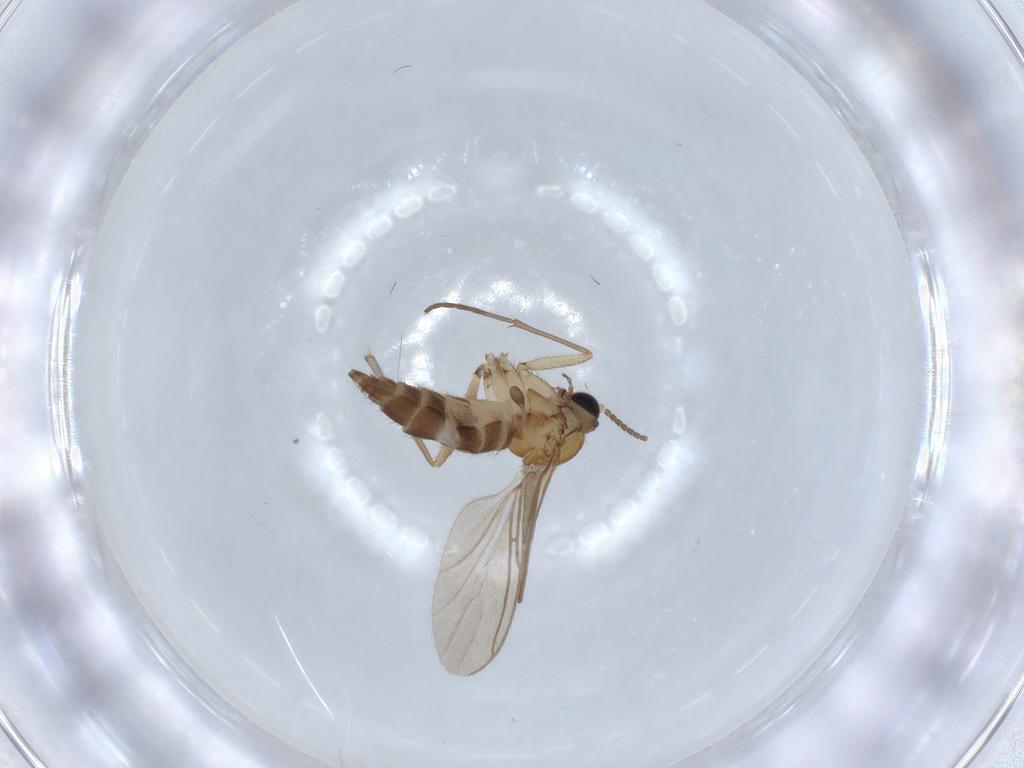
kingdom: Animalia
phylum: Arthropoda
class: Insecta
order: Diptera
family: Sciaridae
